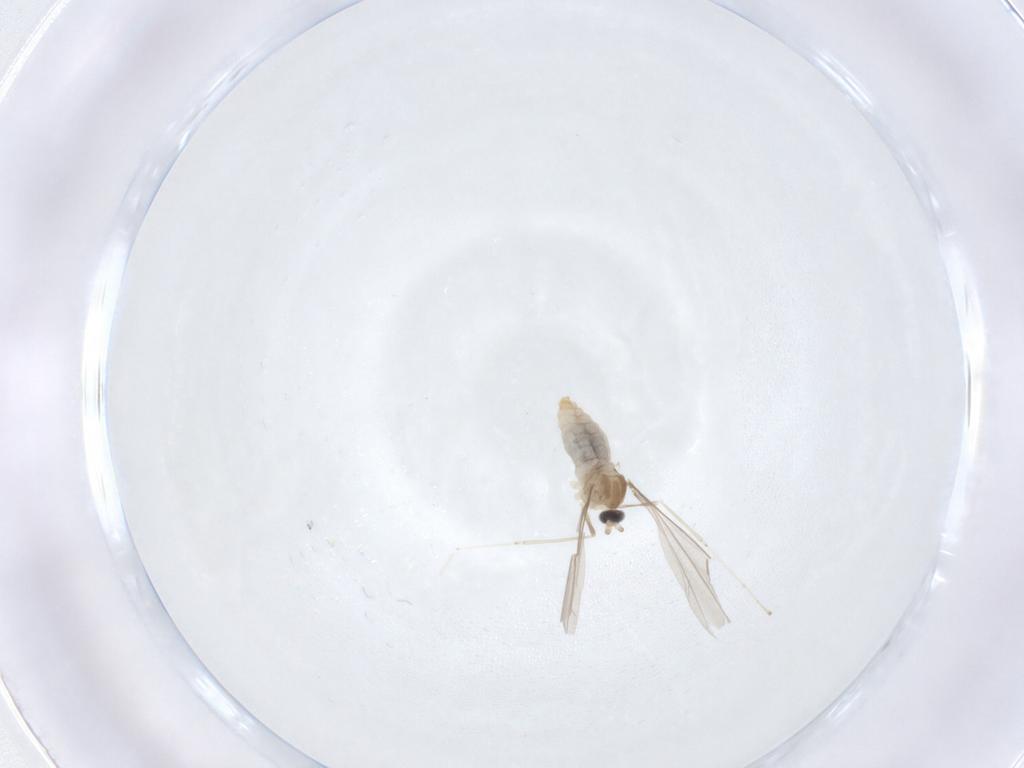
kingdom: Animalia
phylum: Arthropoda
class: Insecta
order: Diptera
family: Cecidomyiidae
